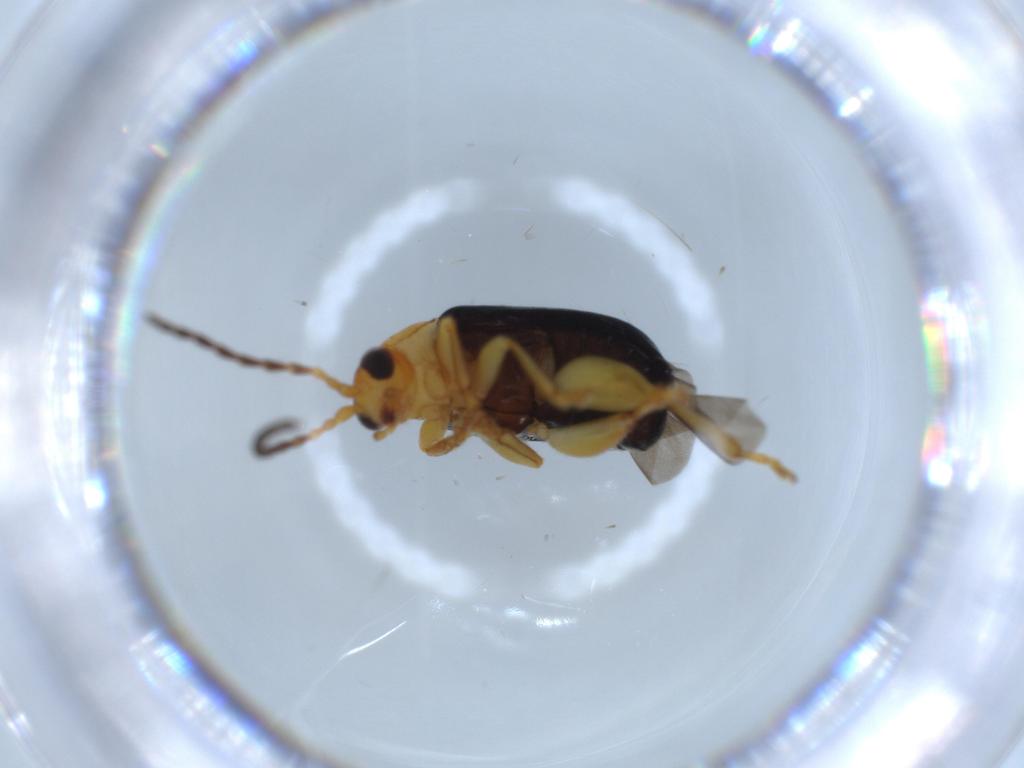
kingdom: Animalia
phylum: Arthropoda
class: Insecta
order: Coleoptera
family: Chrysomelidae
